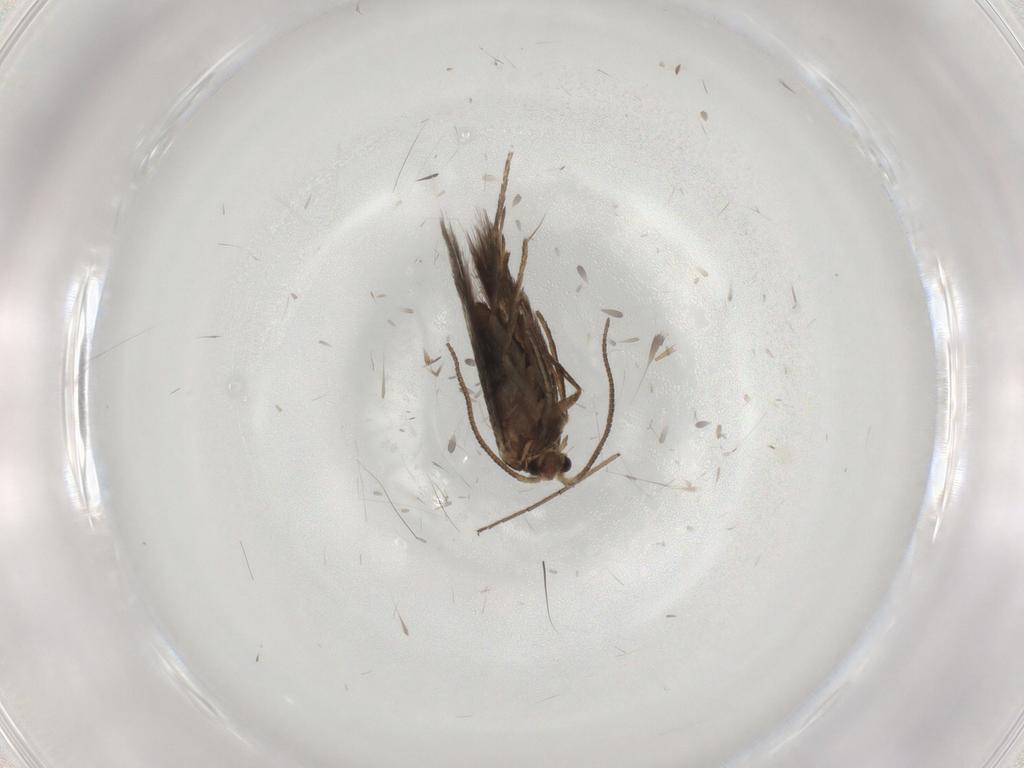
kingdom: Animalia
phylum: Arthropoda
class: Insecta
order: Lepidoptera
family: Nepticulidae
